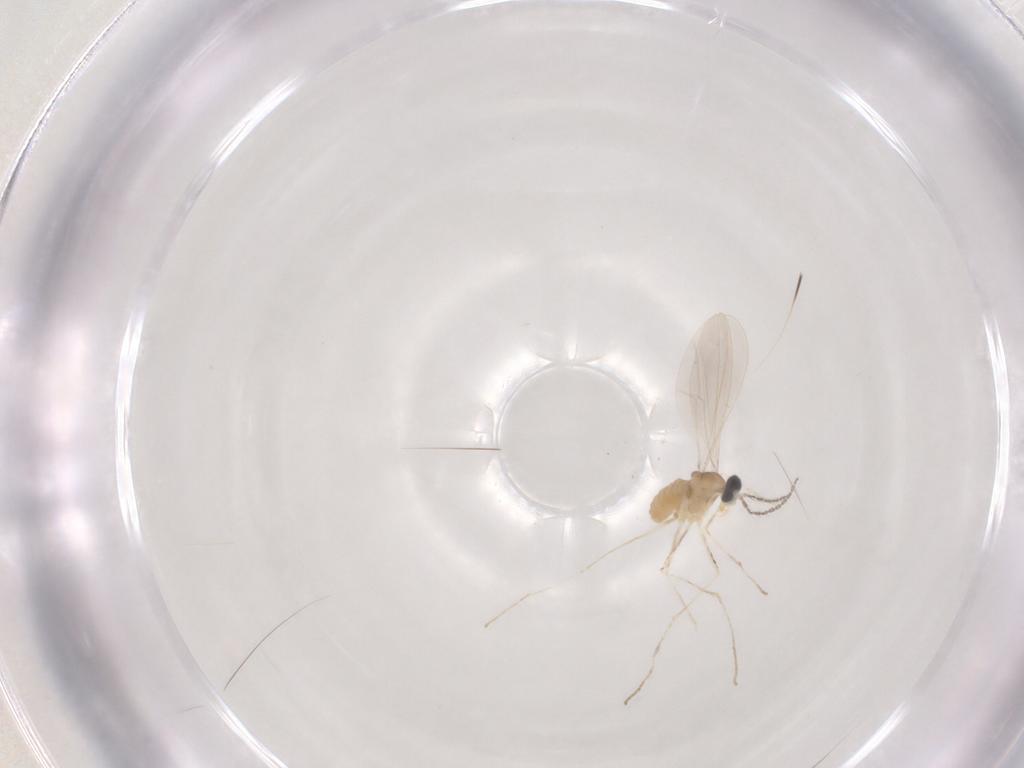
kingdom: Animalia
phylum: Arthropoda
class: Insecta
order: Diptera
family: Cecidomyiidae
